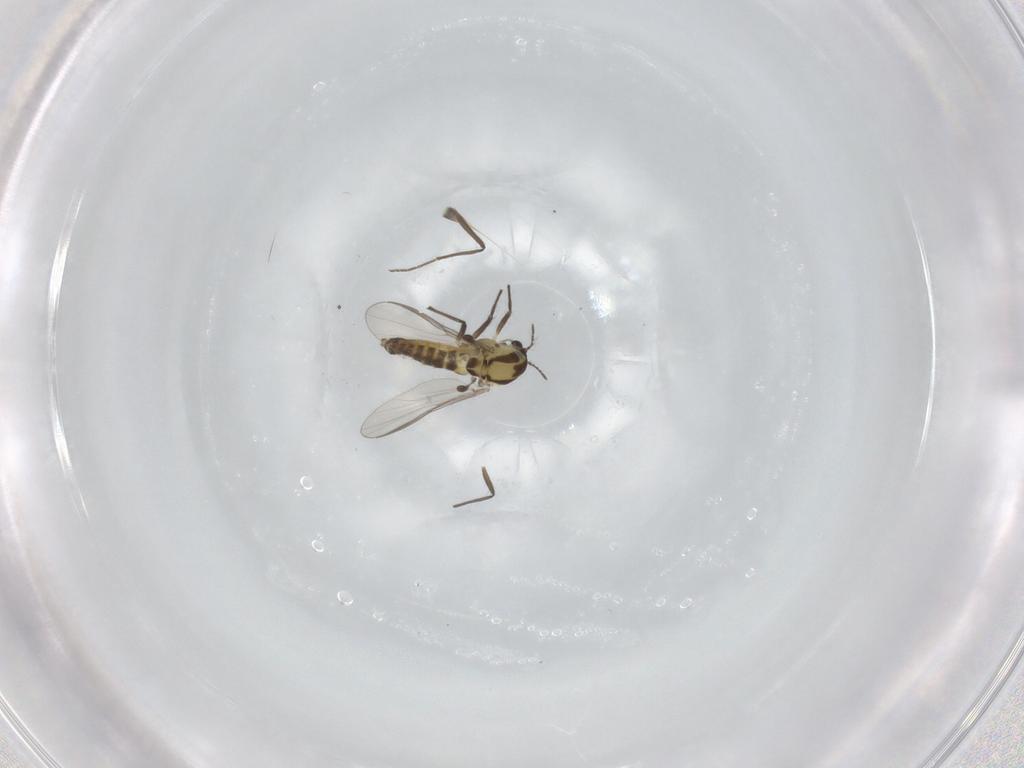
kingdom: Animalia
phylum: Arthropoda
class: Insecta
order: Diptera
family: Chironomidae
